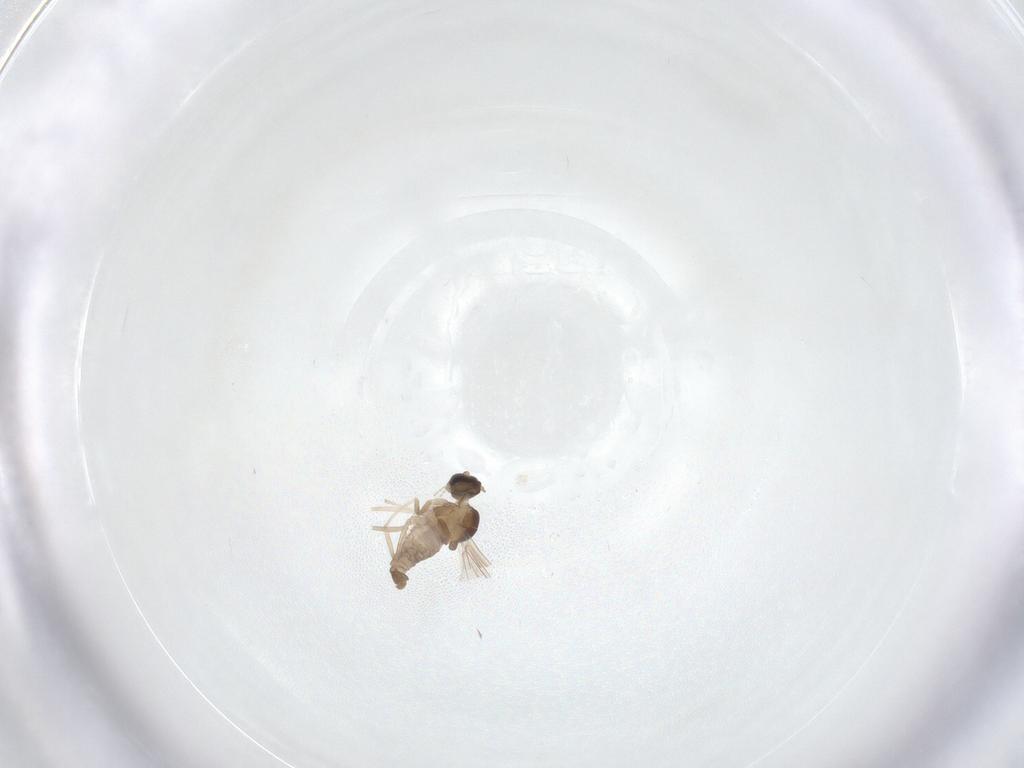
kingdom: Animalia
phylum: Arthropoda
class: Insecta
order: Diptera
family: Cecidomyiidae
